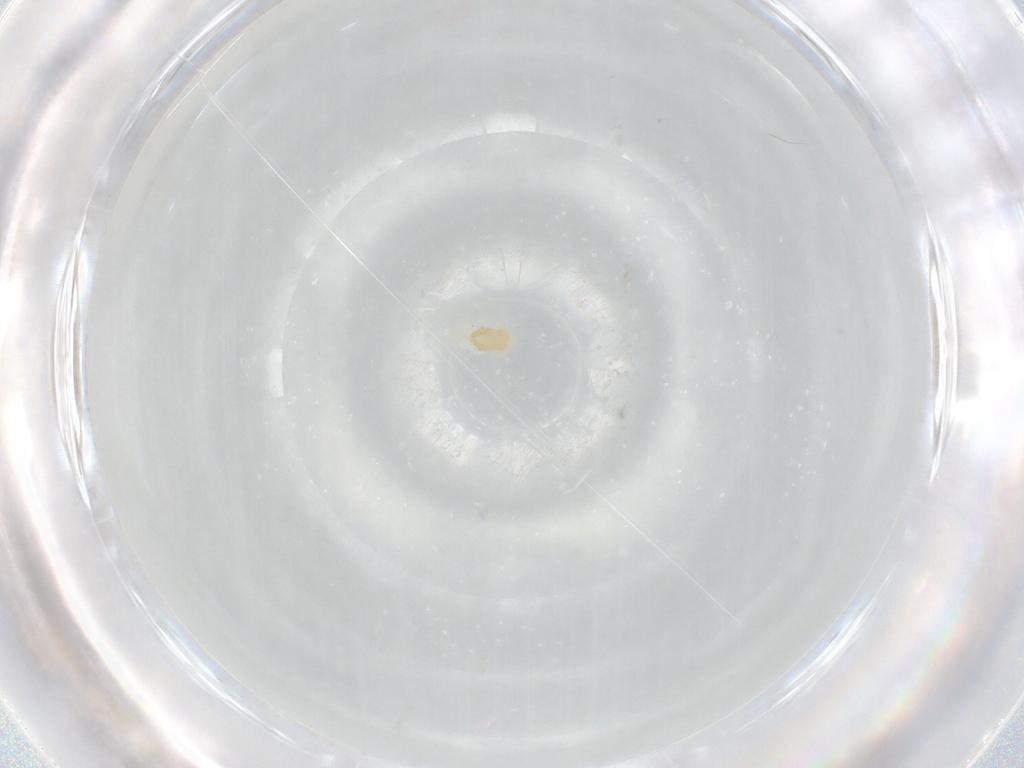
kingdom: Animalia
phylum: Arthropoda
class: Arachnida
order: Trombidiformes
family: Eupodidae
